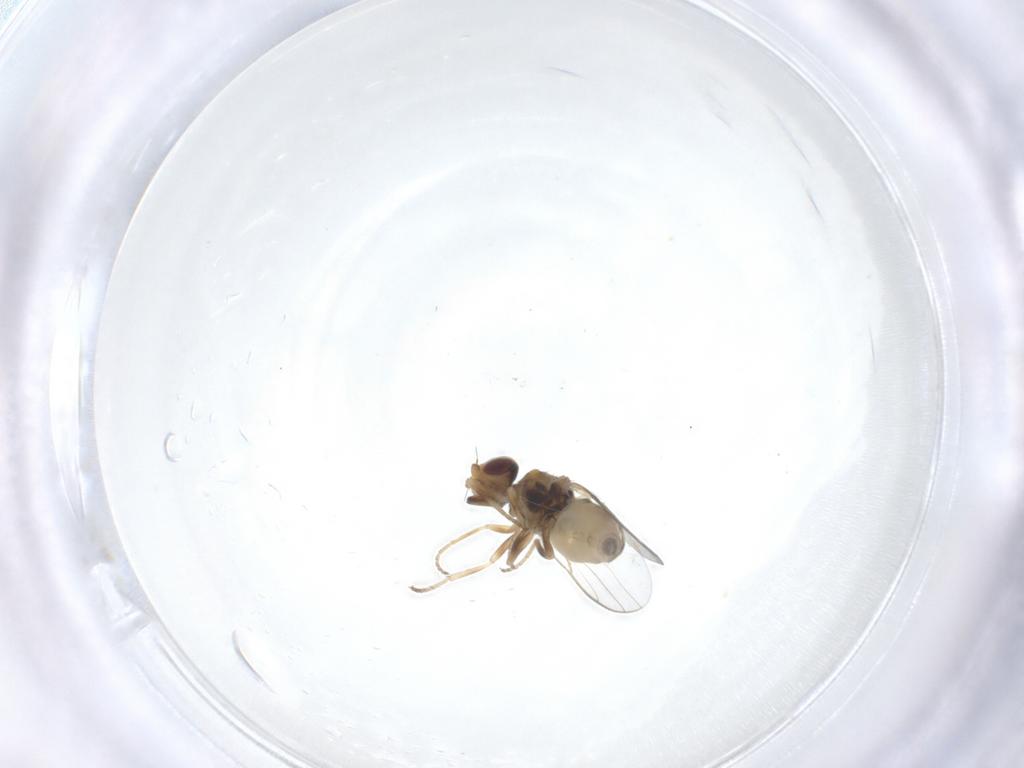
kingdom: Animalia
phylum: Arthropoda
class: Insecta
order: Diptera
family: Chloropidae
